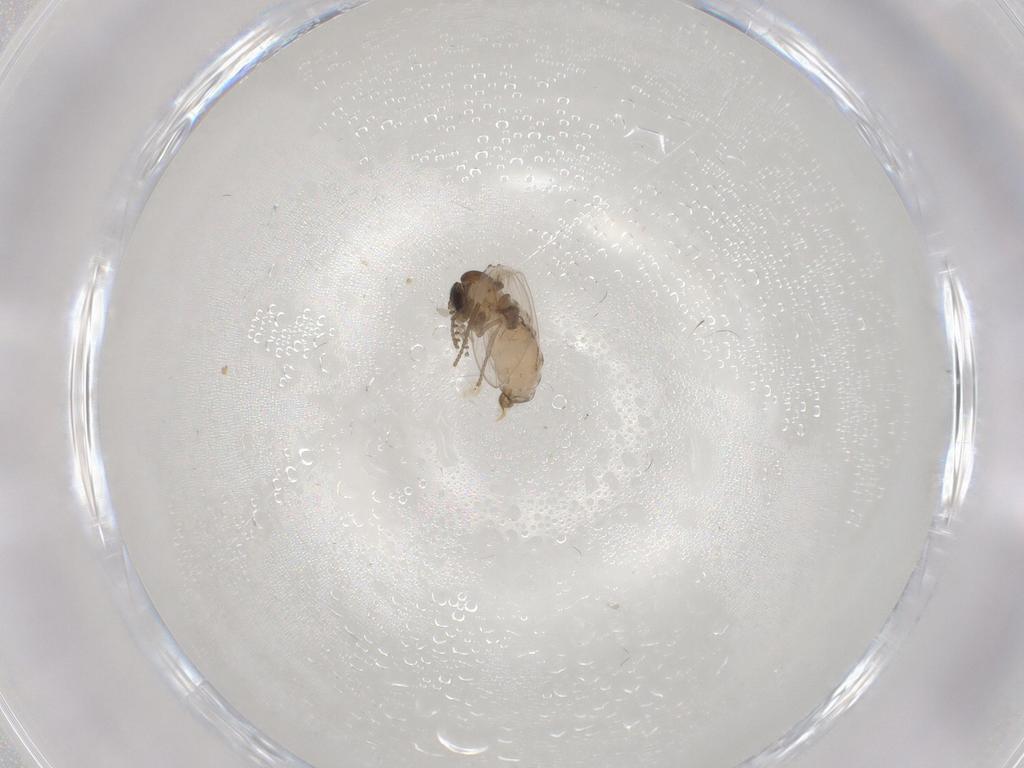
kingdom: Animalia
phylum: Arthropoda
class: Insecta
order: Diptera
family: Psychodidae
